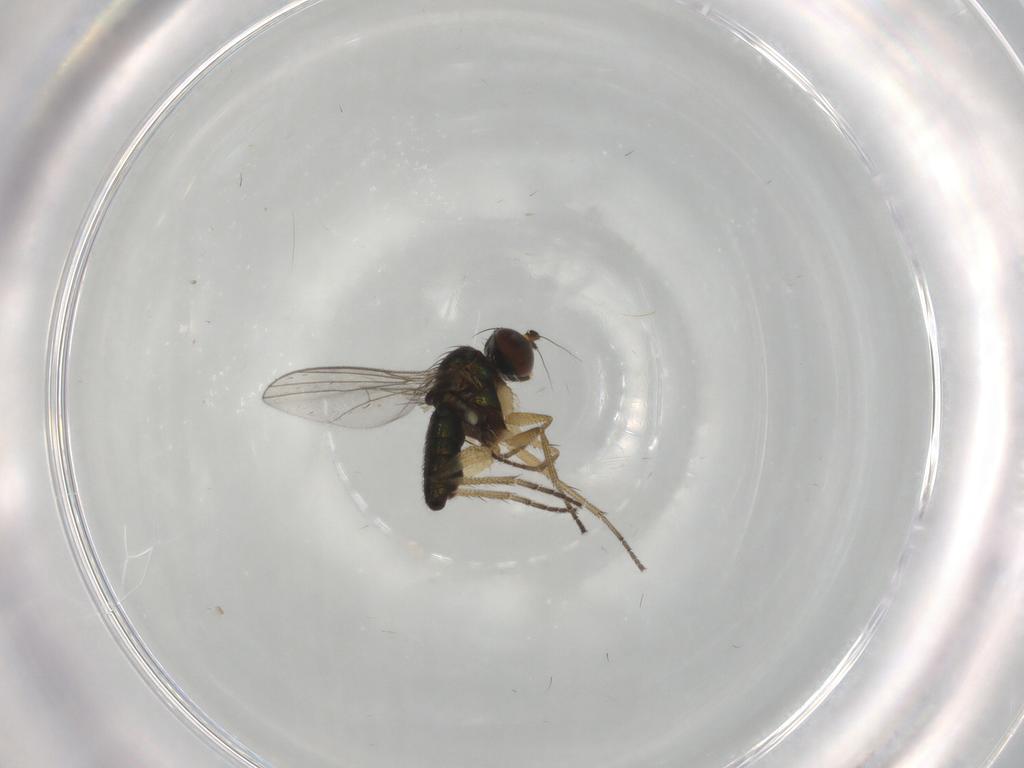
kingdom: Animalia
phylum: Arthropoda
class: Insecta
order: Diptera
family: Dolichopodidae
